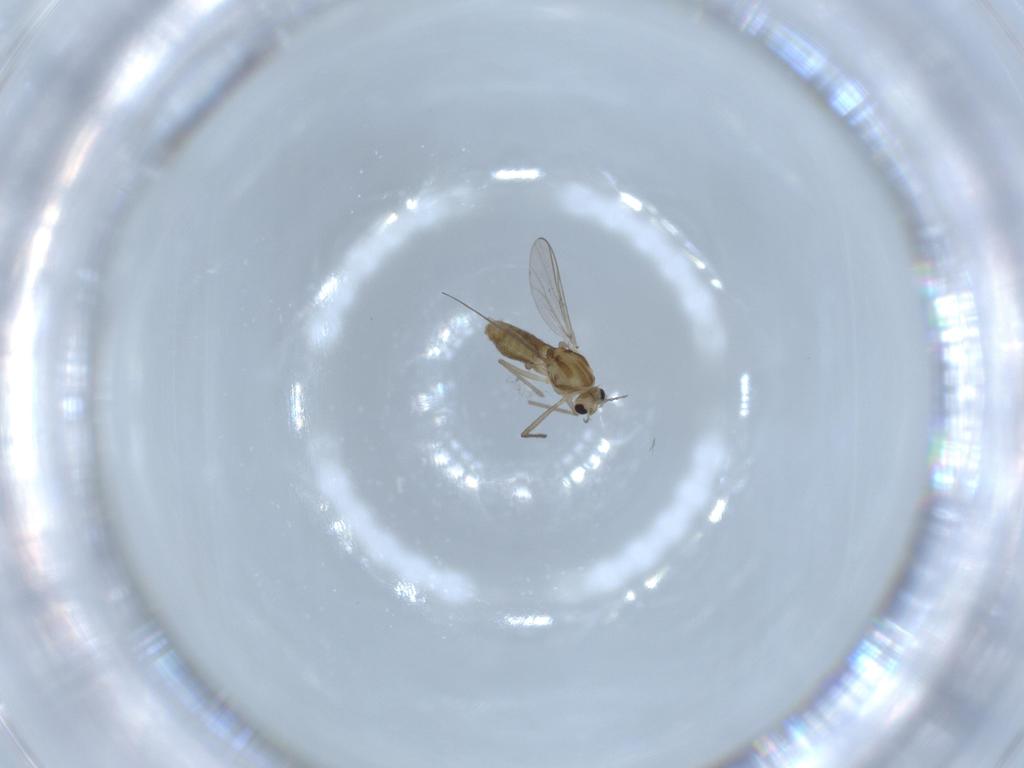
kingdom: Animalia
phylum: Arthropoda
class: Insecta
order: Diptera
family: Chironomidae
